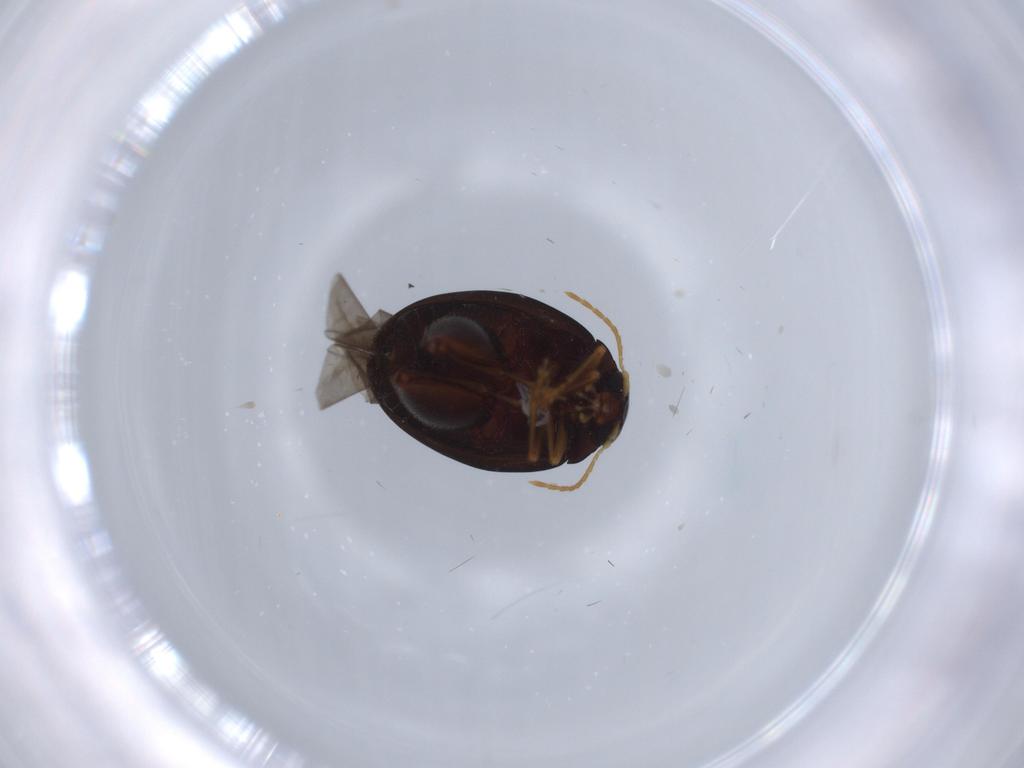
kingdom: Animalia
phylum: Arthropoda
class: Insecta
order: Coleoptera
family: Chrysomelidae
